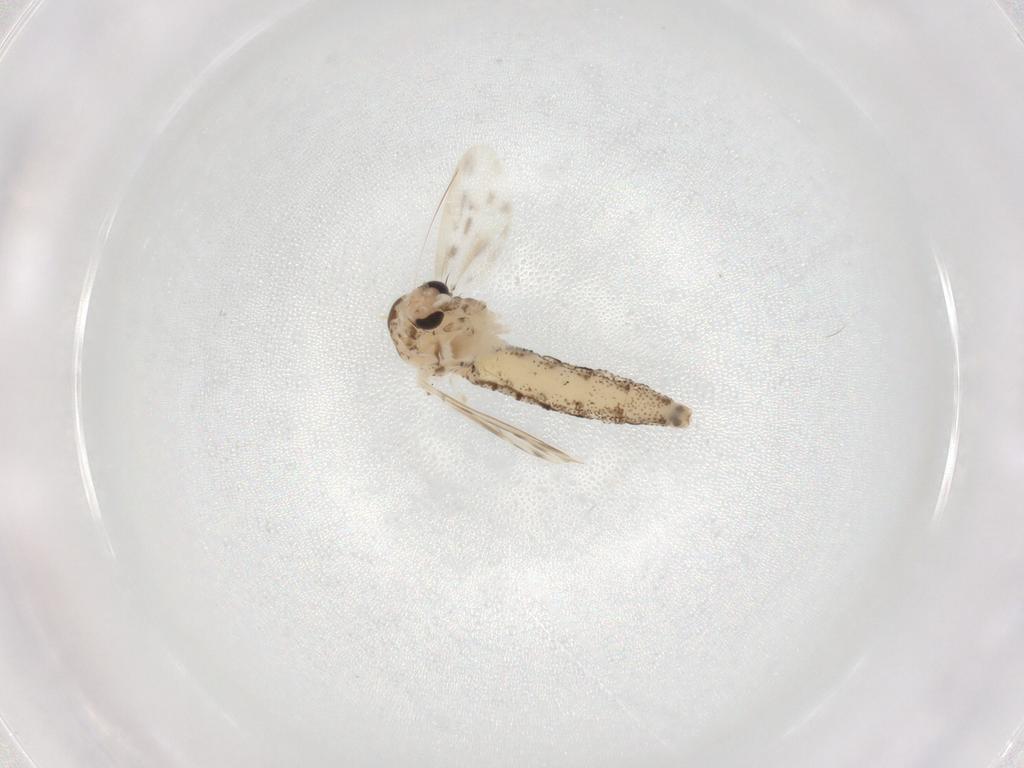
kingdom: Animalia
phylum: Arthropoda
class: Insecta
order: Diptera
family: Chaoboridae
